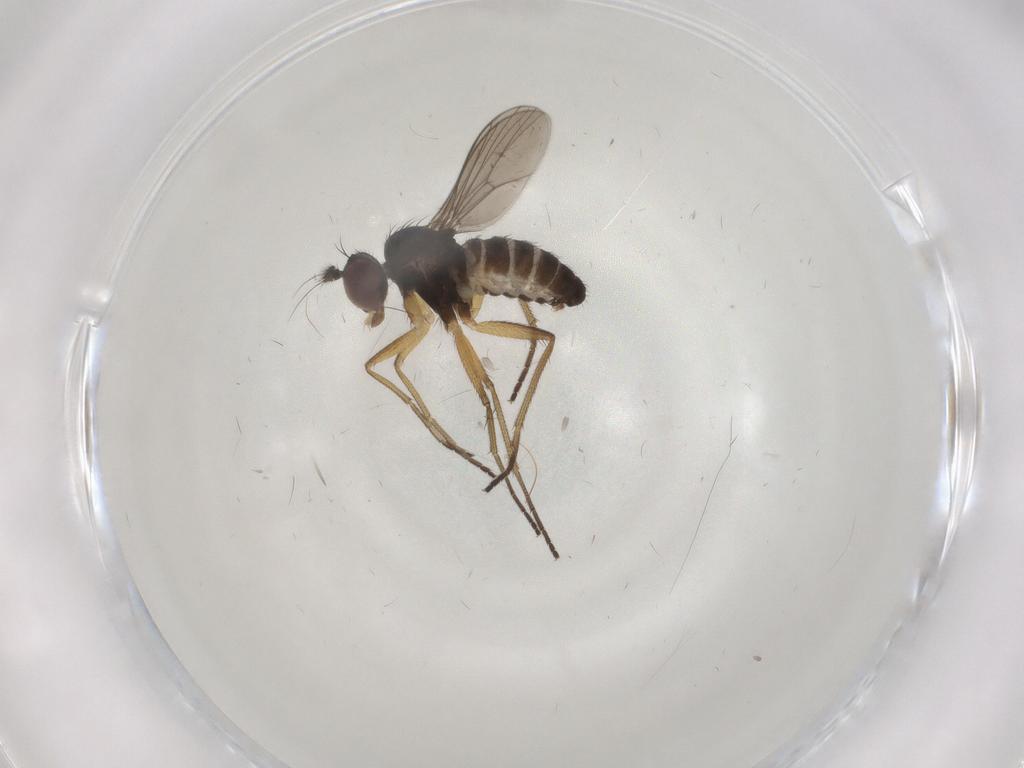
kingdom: Animalia
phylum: Arthropoda
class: Insecta
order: Diptera
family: Dolichopodidae
